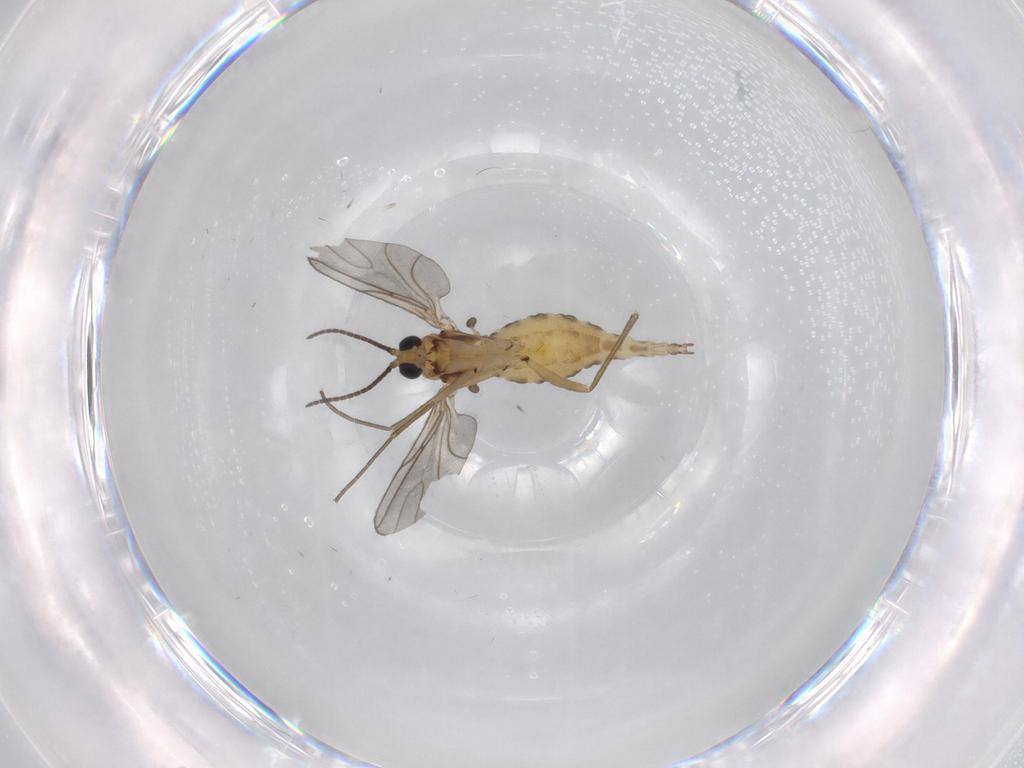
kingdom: Animalia
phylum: Arthropoda
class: Insecta
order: Diptera
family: Sciaridae
